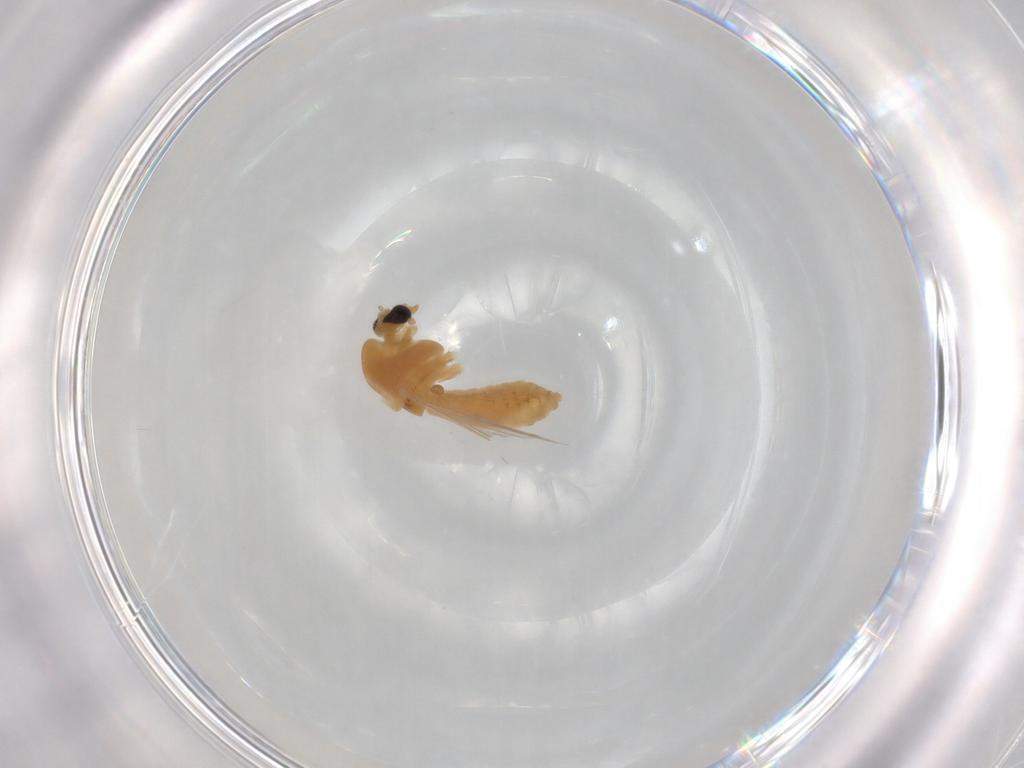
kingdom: Animalia
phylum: Arthropoda
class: Insecta
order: Diptera
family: Chironomidae
